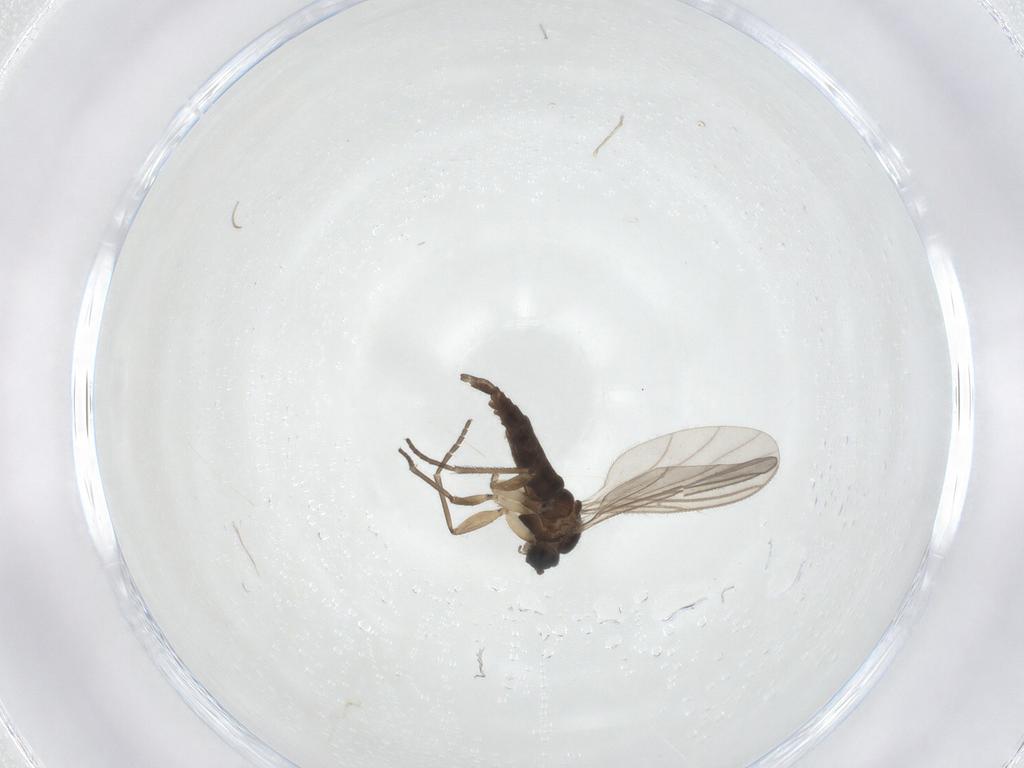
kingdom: Animalia
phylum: Arthropoda
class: Insecta
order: Diptera
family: Sciaridae
